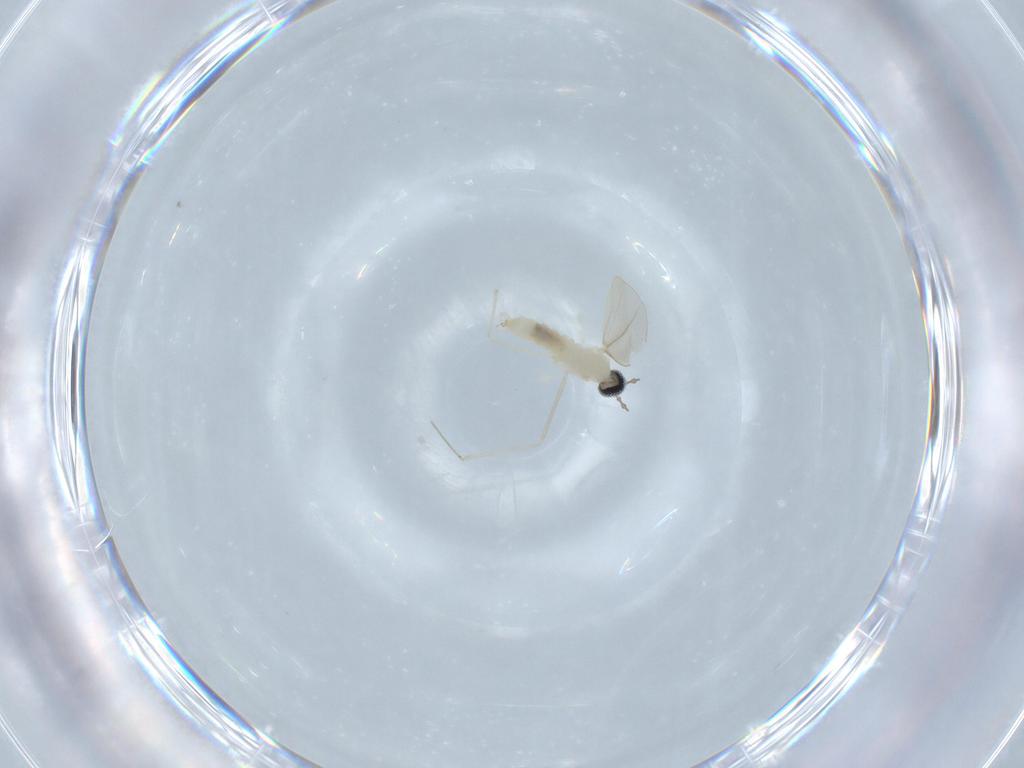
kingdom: Animalia
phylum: Arthropoda
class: Insecta
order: Diptera
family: Cecidomyiidae
